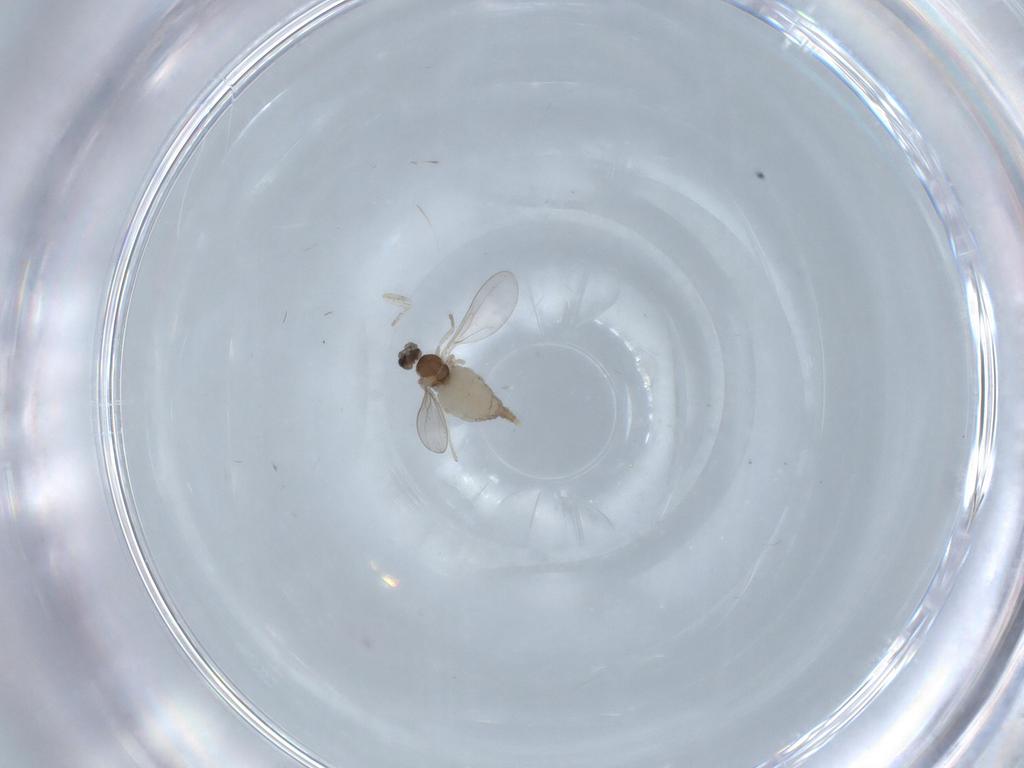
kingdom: Animalia
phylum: Arthropoda
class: Insecta
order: Diptera
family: Cecidomyiidae
